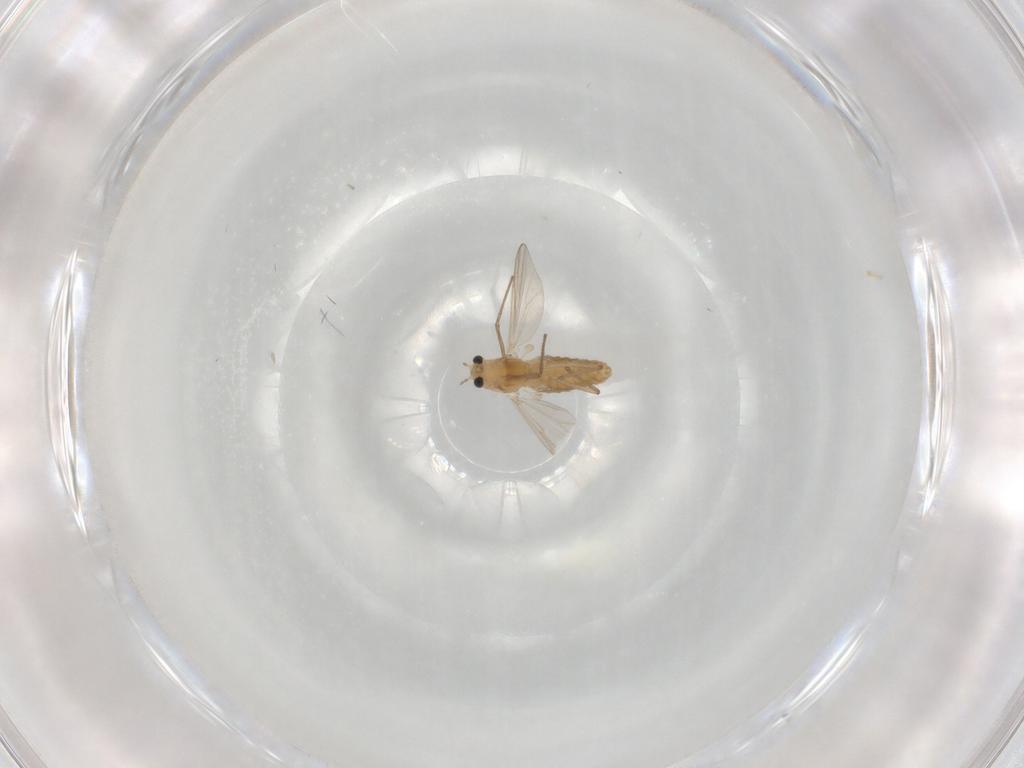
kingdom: Animalia
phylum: Arthropoda
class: Insecta
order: Diptera
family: Chironomidae
